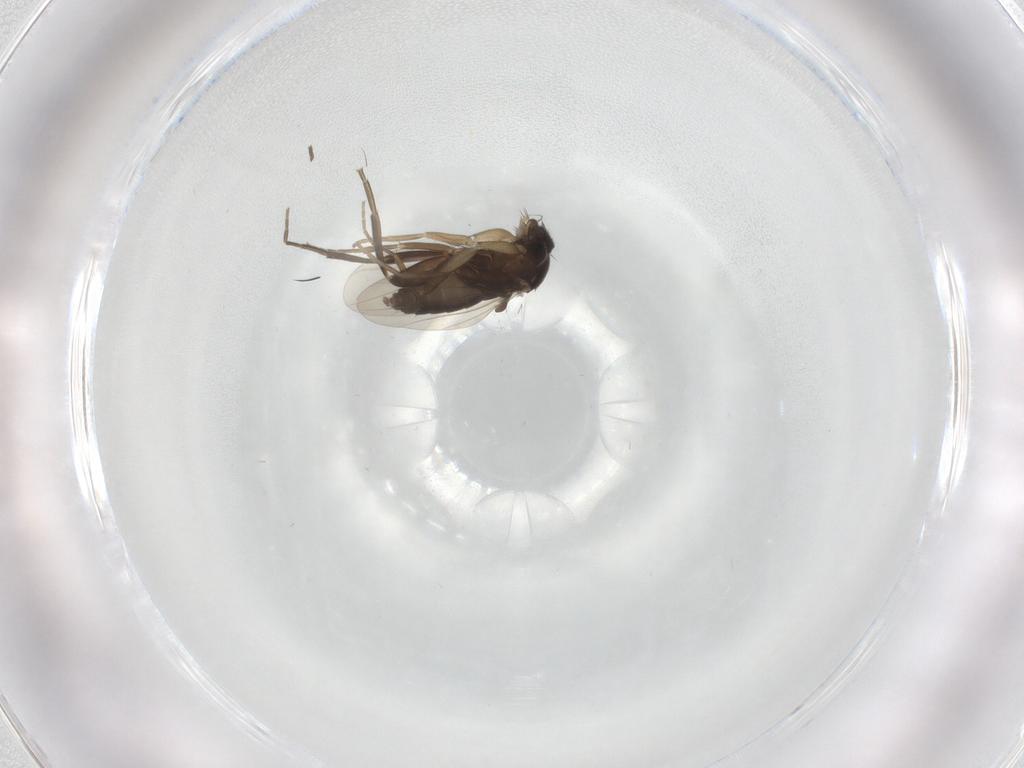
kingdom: Animalia
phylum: Arthropoda
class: Insecta
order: Diptera
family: Phoridae
